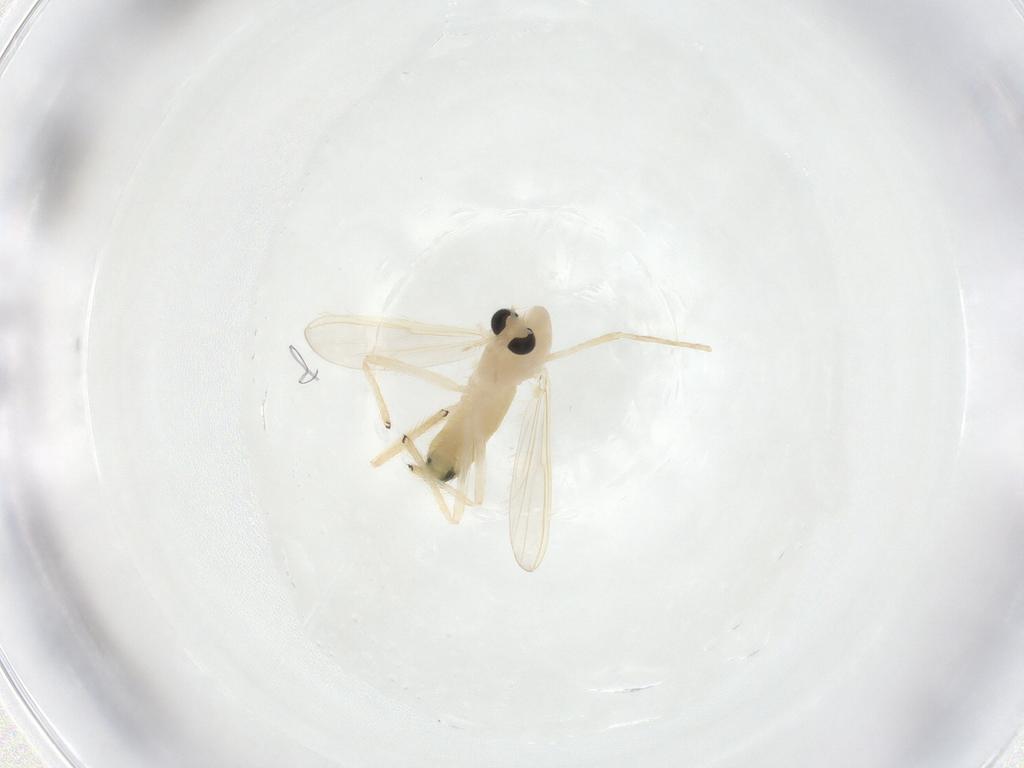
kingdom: Animalia
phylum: Arthropoda
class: Insecta
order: Diptera
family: Chironomidae
